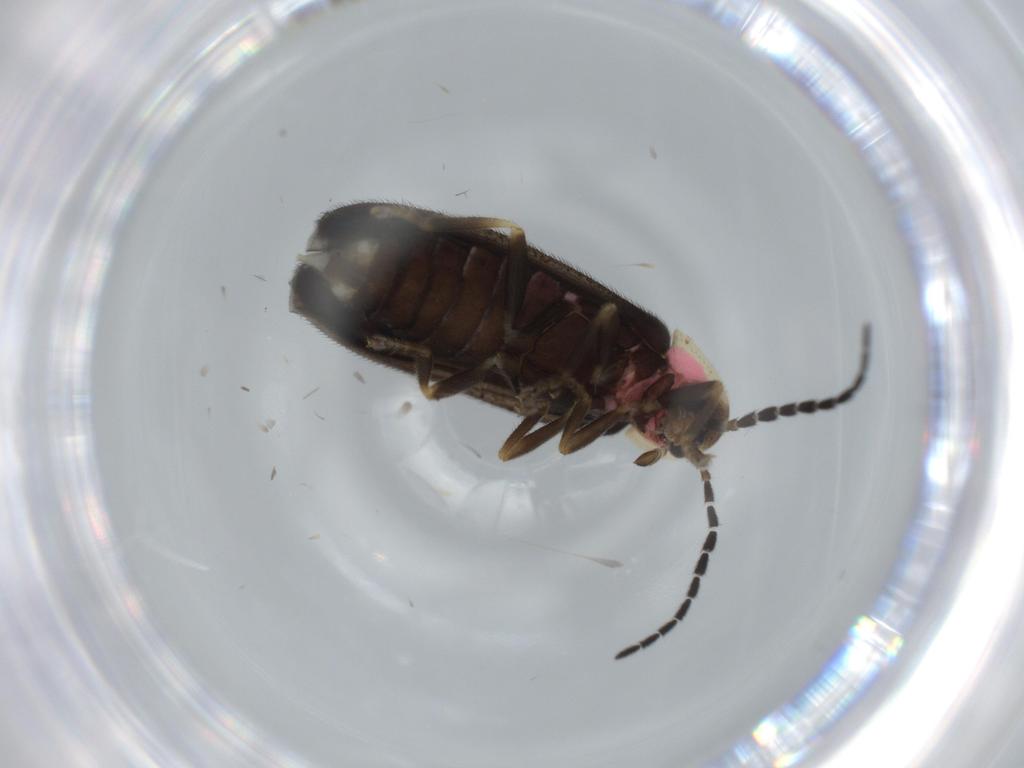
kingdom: Animalia
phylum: Arthropoda
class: Insecta
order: Coleoptera
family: Lampyridae
